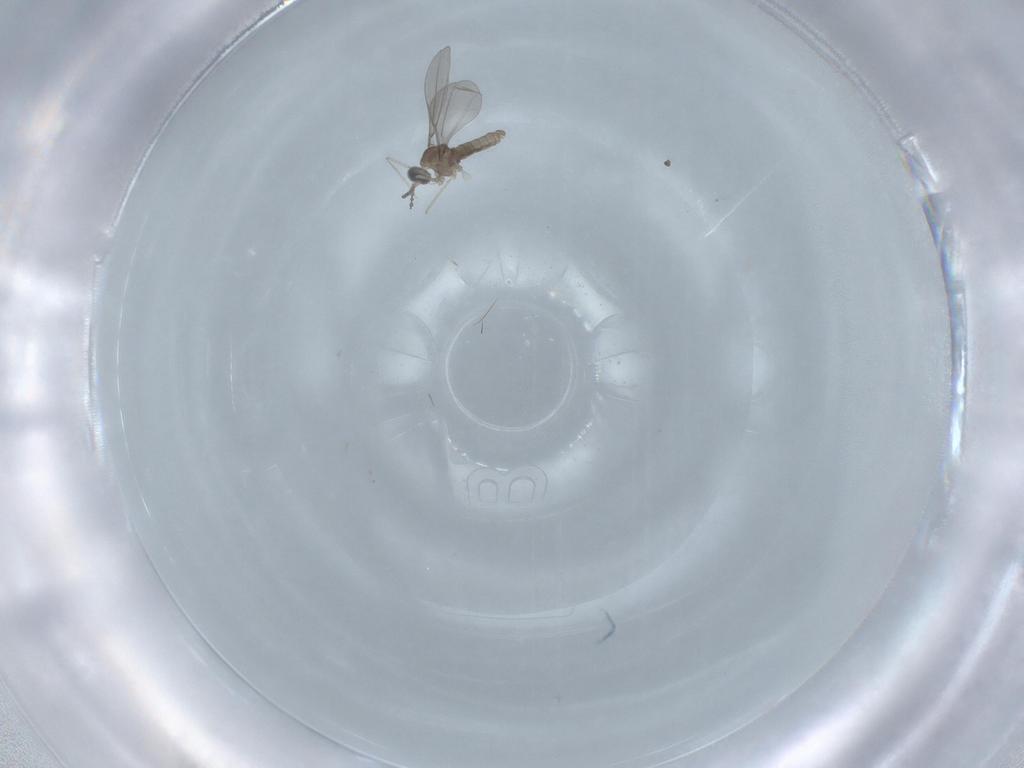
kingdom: Animalia
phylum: Arthropoda
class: Insecta
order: Diptera
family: Cecidomyiidae
